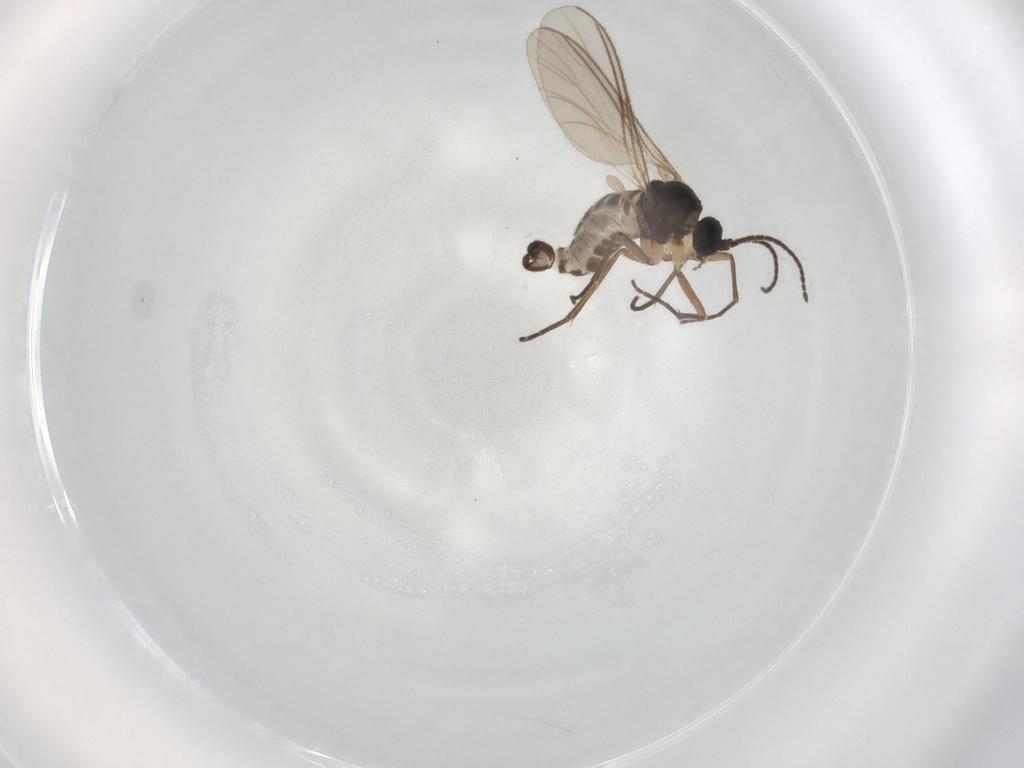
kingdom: Animalia
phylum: Arthropoda
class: Insecta
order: Diptera
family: Sciaridae
